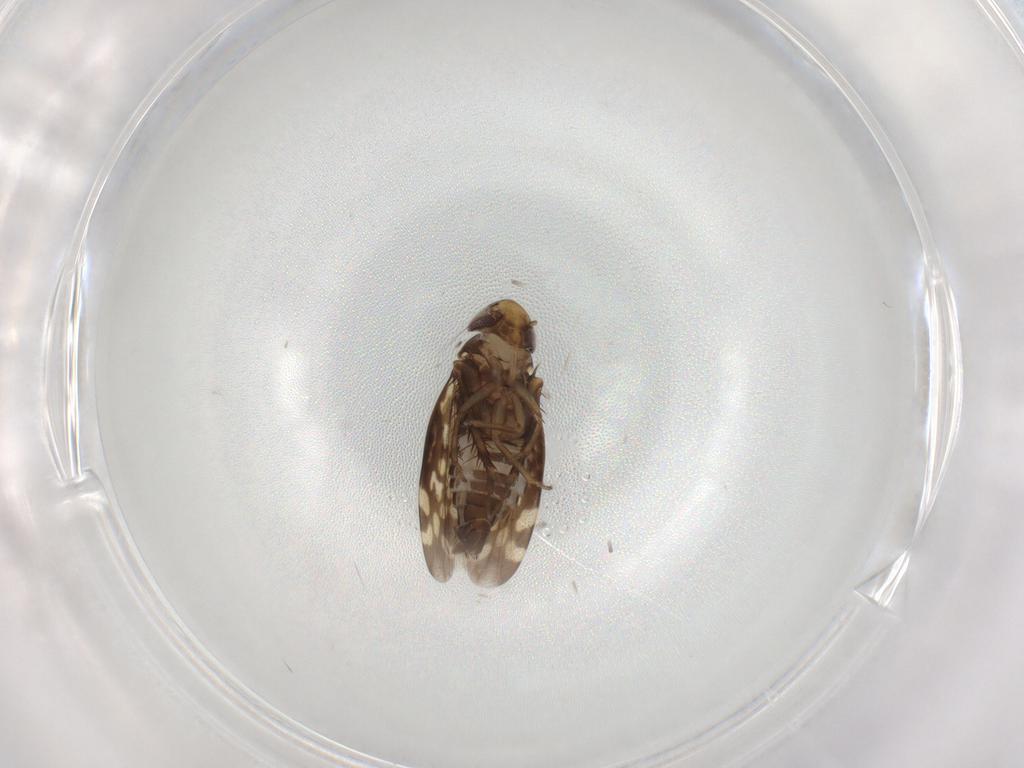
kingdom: Animalia
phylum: Arthropoda
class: Insecta
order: Hemiptera
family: Cicadellidae
